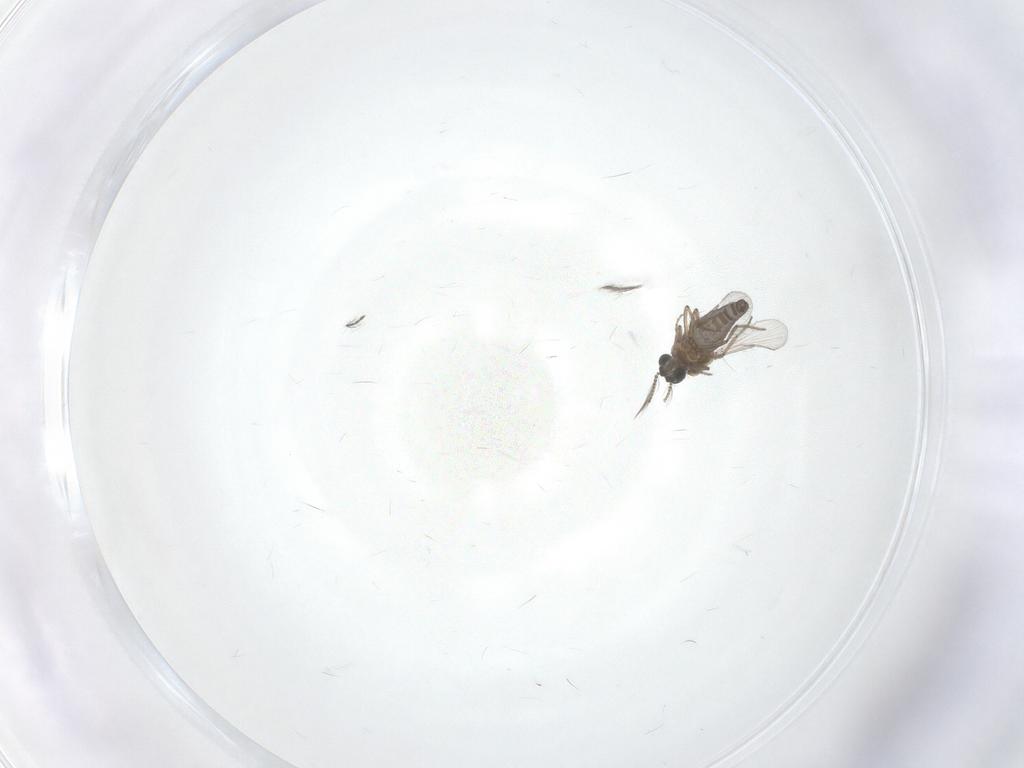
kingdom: Animalia
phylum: Arthropoda
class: Insecta
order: Diptera
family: Ceratopogonidae
